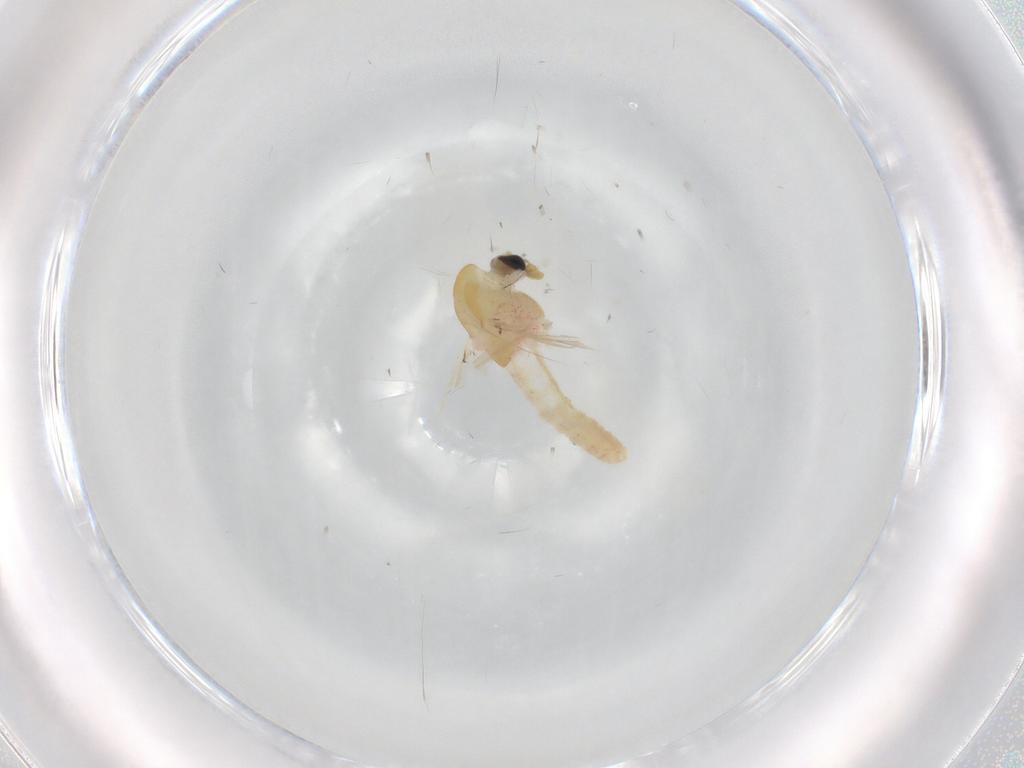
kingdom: Animalia
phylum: Arthropoda
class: Insecta
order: Diptera
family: Chironomidae
